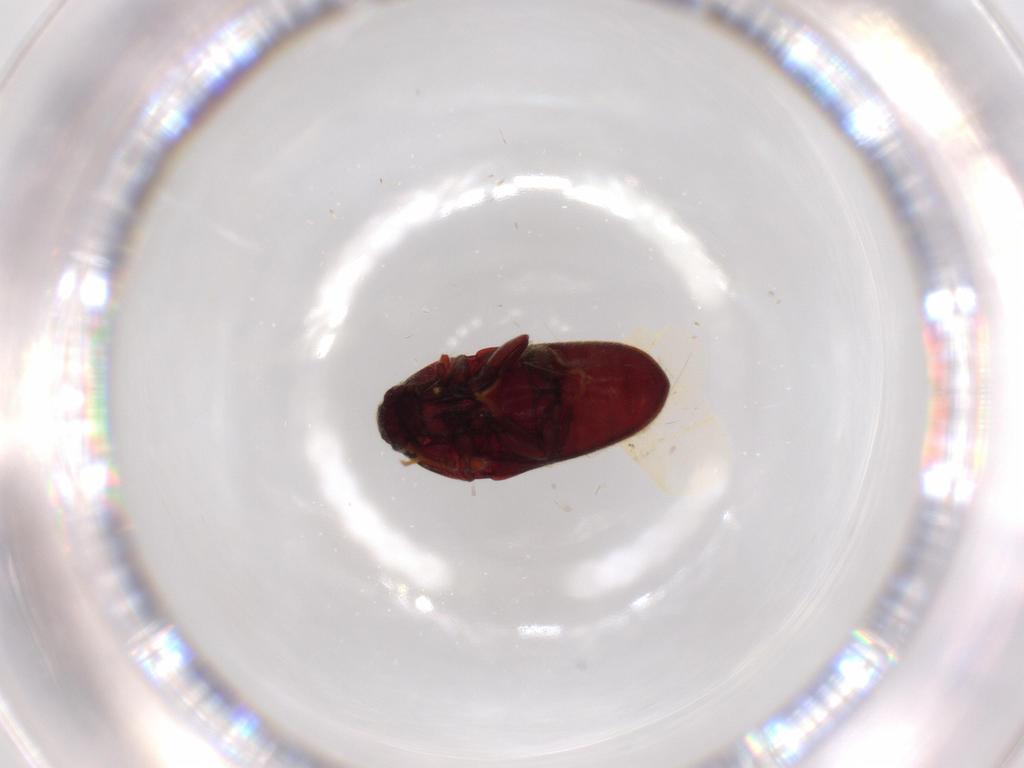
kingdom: Animalia
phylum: Arthropoda
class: Insecta
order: Coleoptera
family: Throscidae
